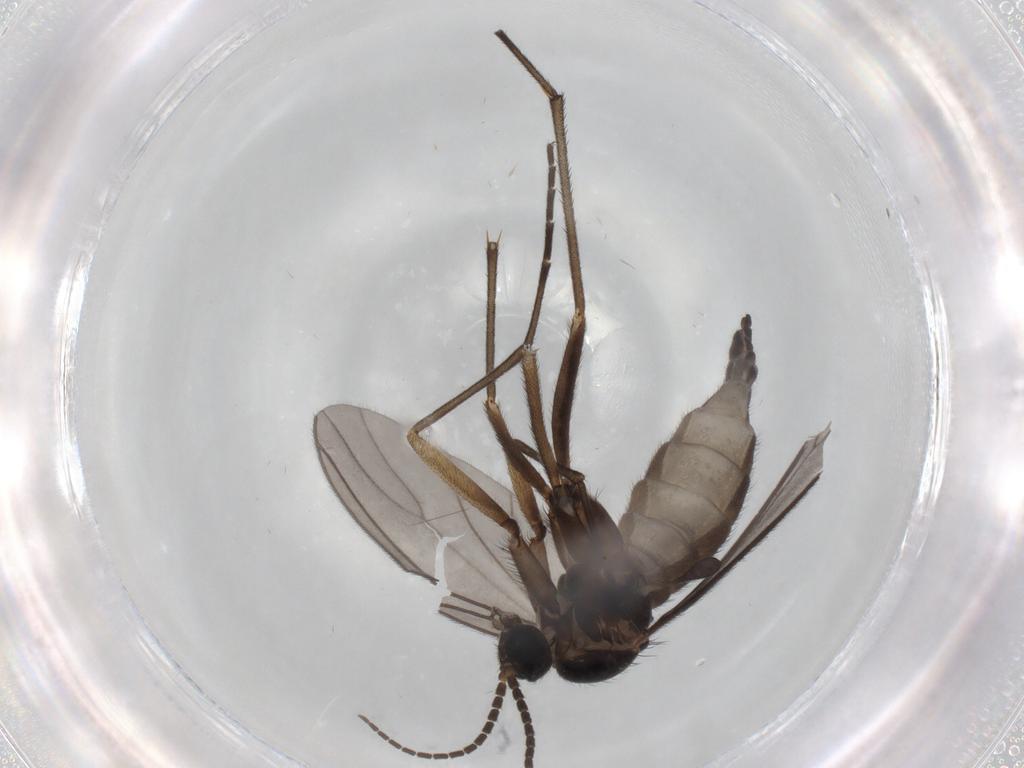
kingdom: Animalia
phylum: Arthropoda
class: Insecta
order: Diptera
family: Sciaridae
